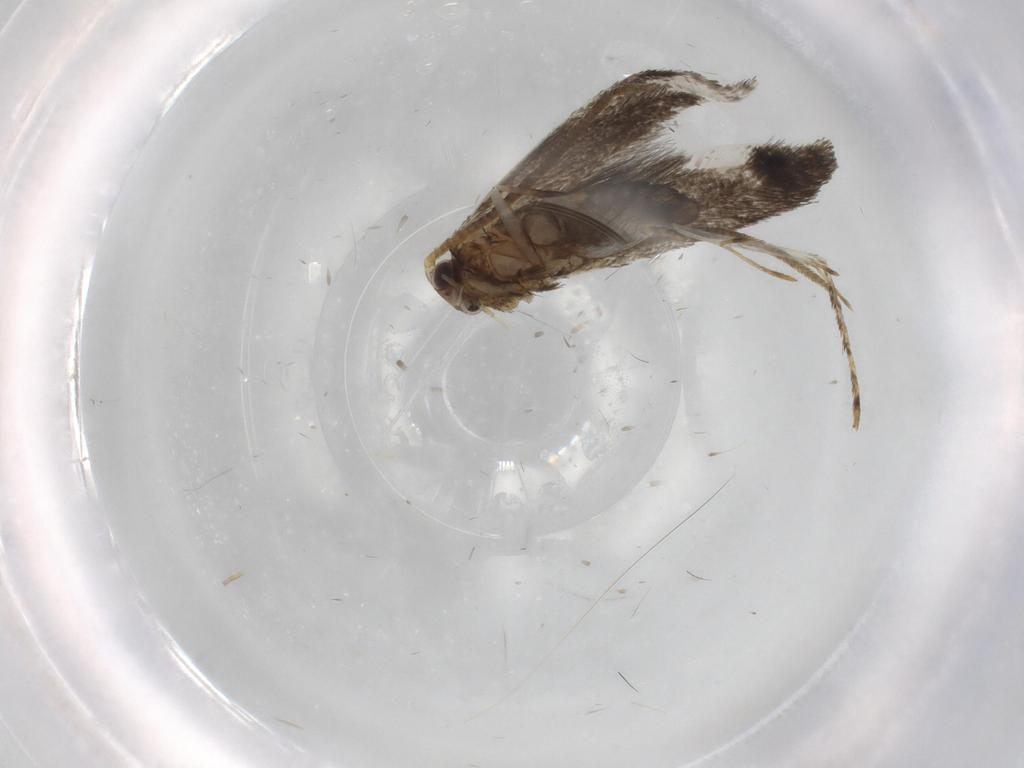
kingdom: Animalia
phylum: Arthropoda
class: Insecta
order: Lepidoptera
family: Tineidae
